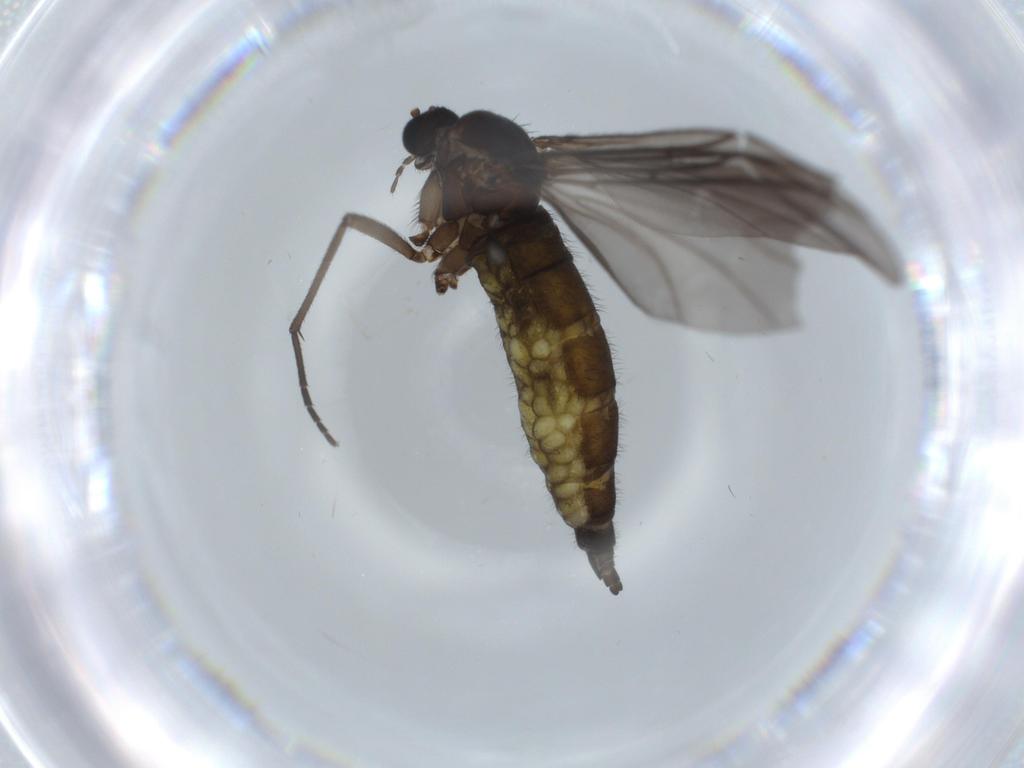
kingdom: Animalia
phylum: Arthropoda
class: Insecta
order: Diptera
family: Sciaridae
